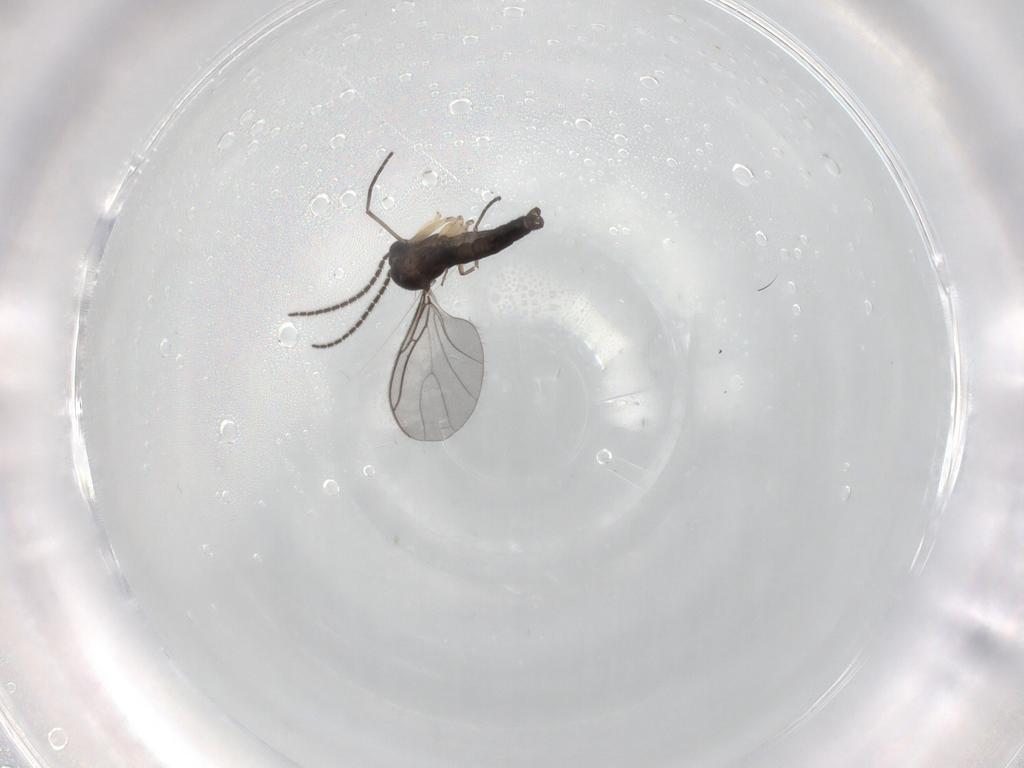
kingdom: Animalia
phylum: Arthropoda
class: Insecta
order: Diptera
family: Sciaridae
